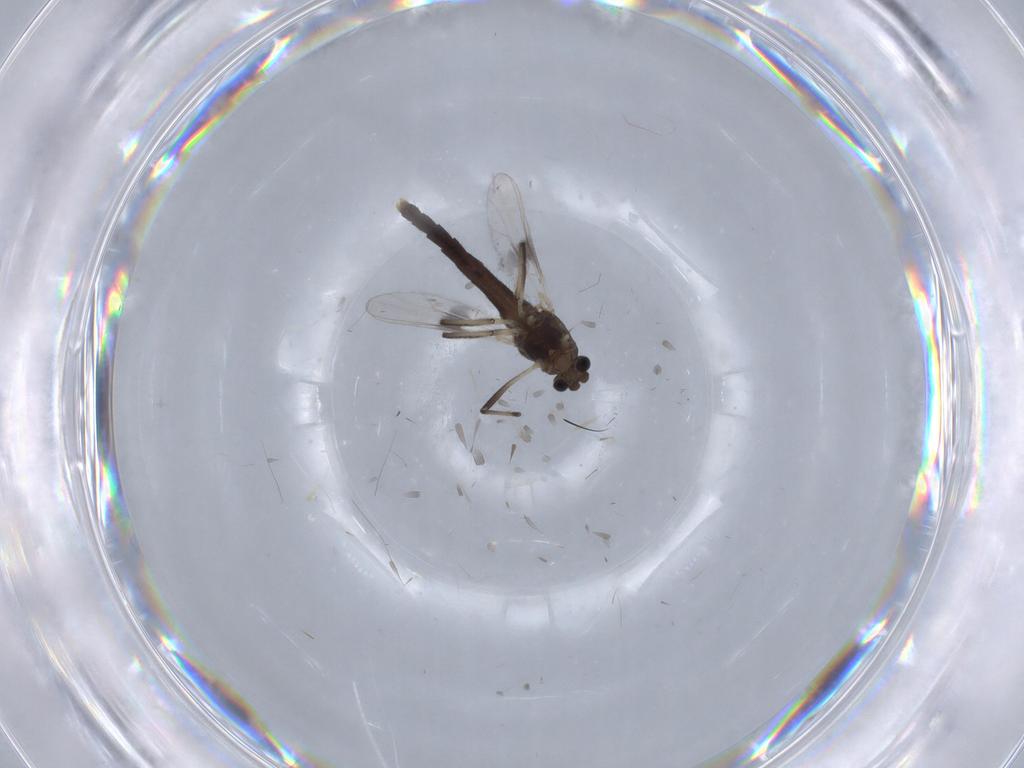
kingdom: Animalia
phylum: Arthropoda
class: Insecta
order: Diptera
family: Chironomidae
